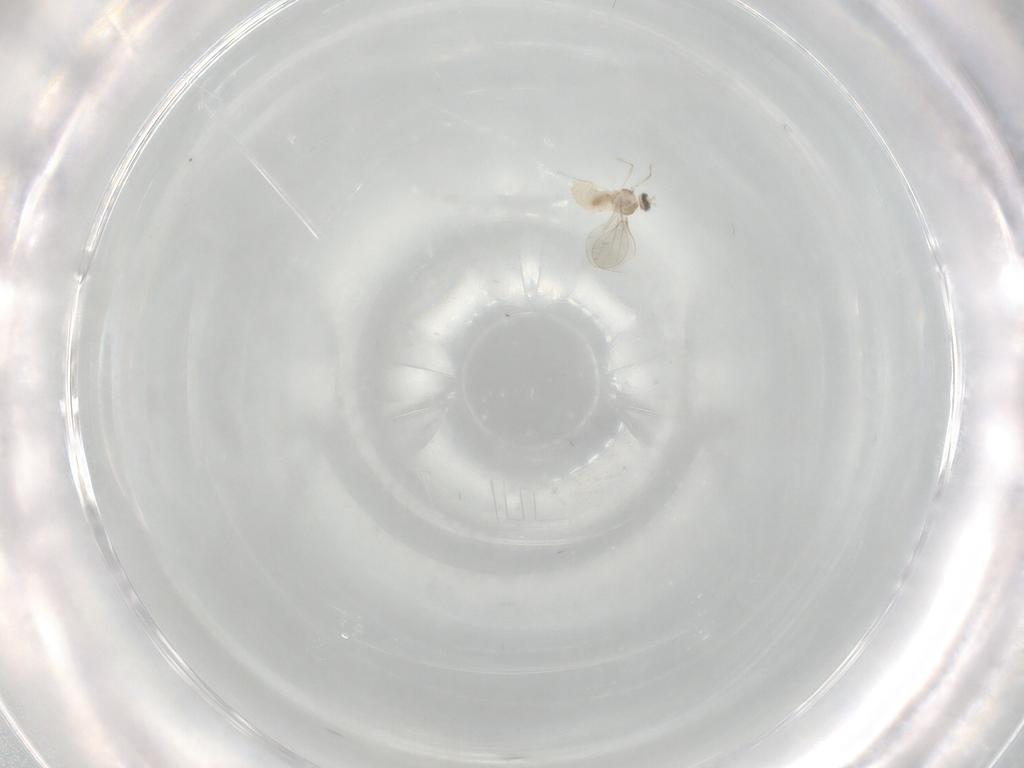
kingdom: Animalia
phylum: Arthropoda
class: Insecta
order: Diptera
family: Cecidomyiidae
